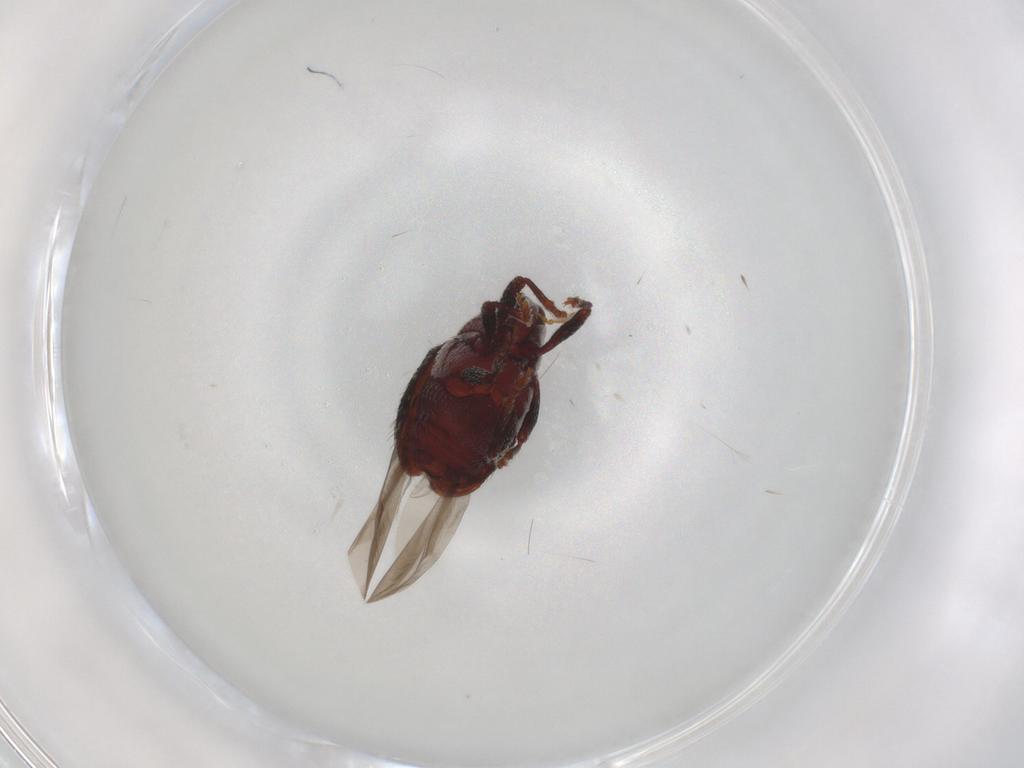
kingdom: Animalia
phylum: Arthropoda
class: Insecta
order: Coleoptera
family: Curculionidae
